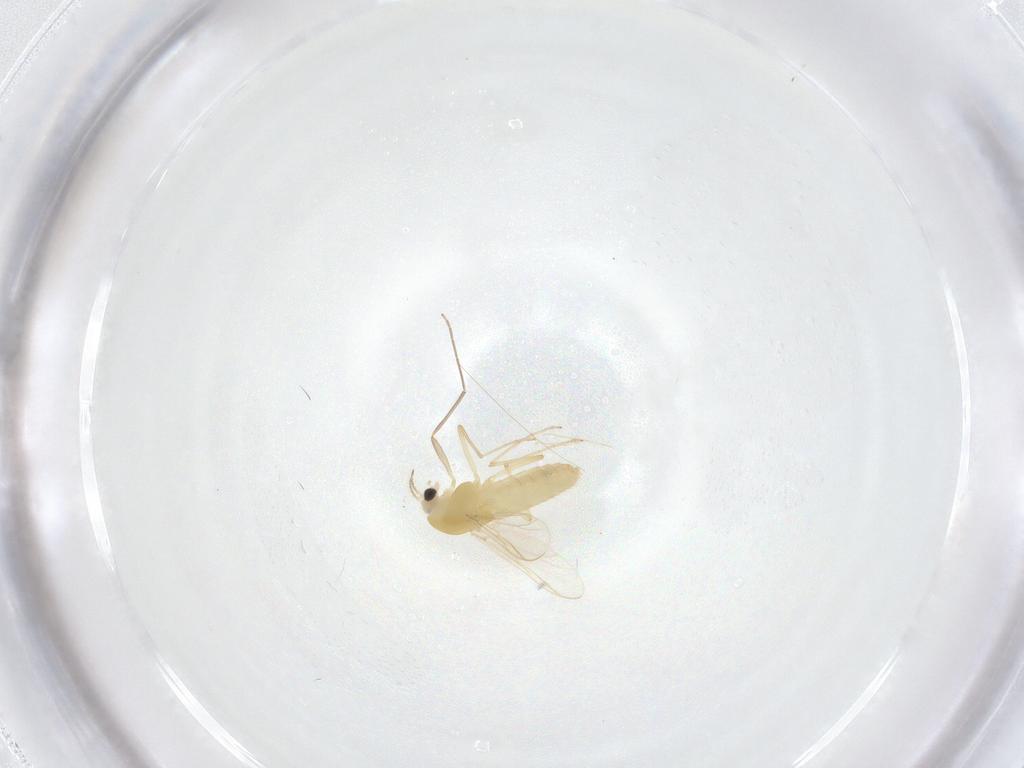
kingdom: Animalia
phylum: Arthropoda
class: Insecta
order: Diptera
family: Chironomidae
